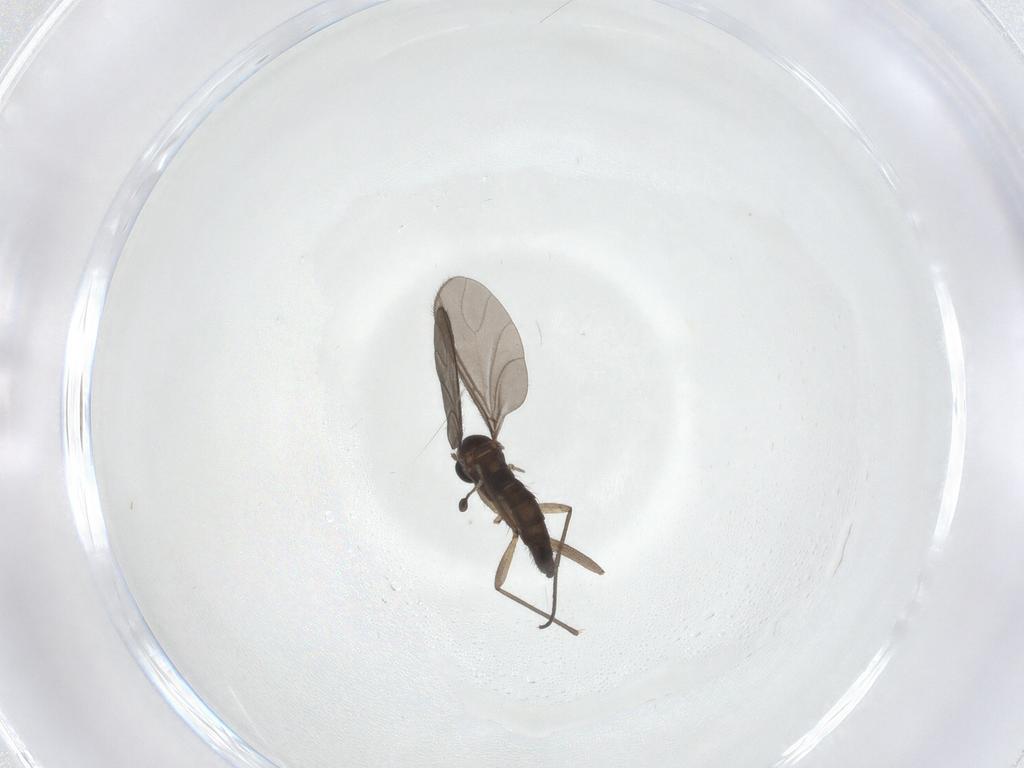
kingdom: Animalia
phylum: Arthropoda
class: Insecta
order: Diptera
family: Sciaridae
